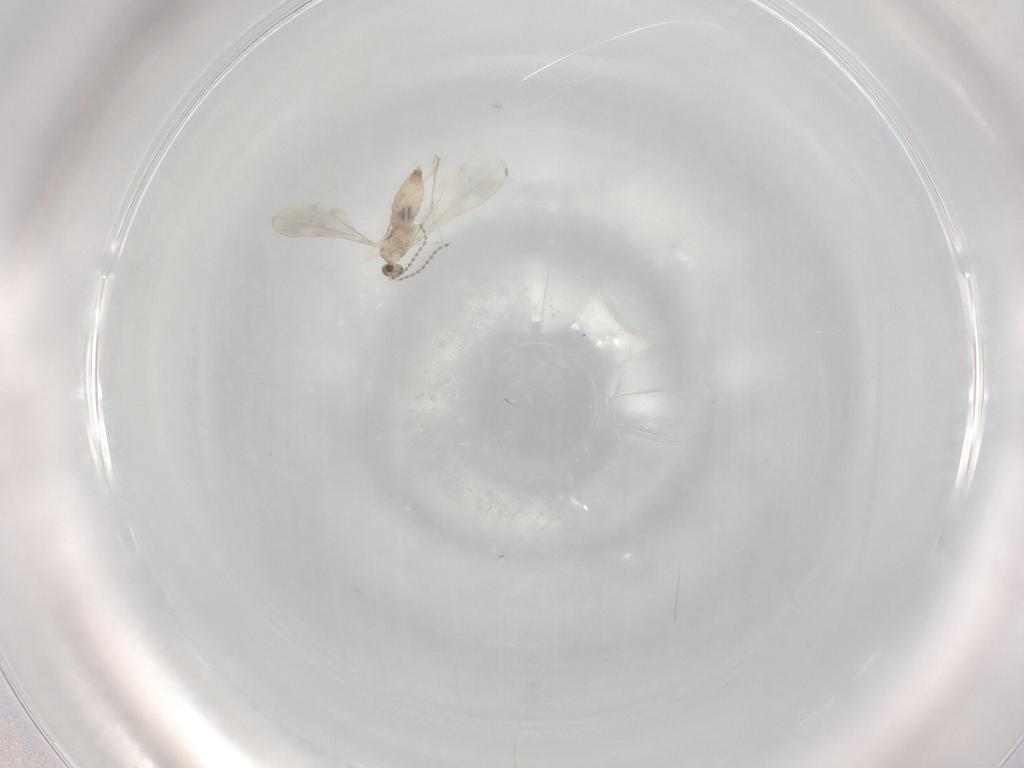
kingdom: Animalia
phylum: Arthropoda
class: Insecta
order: Diptera
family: Cecidomyiidae
